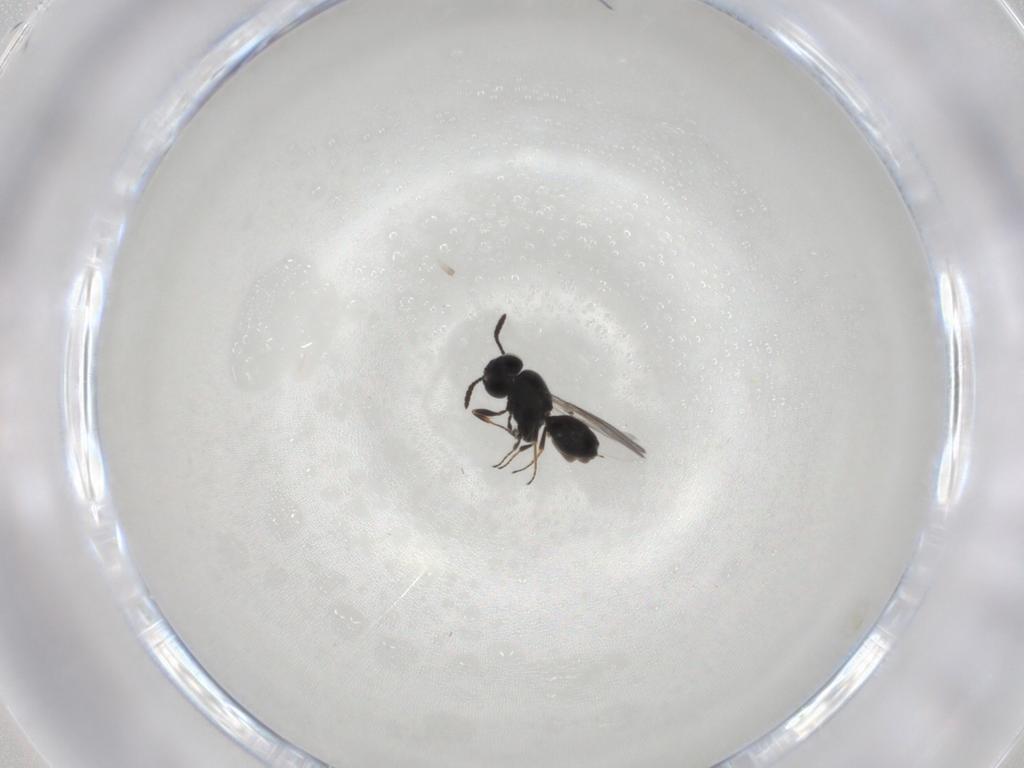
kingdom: Animalia
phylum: Arthropoda
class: Insecta
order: Hymenoptera
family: Scelionidae
